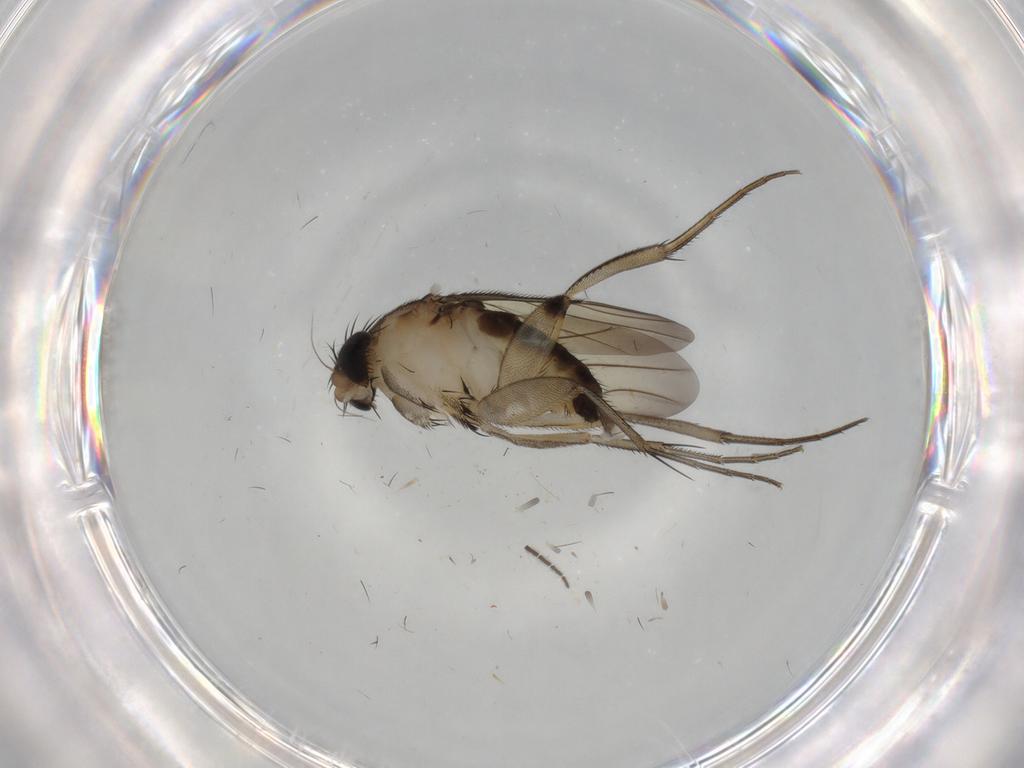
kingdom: Animalia
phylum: Arthropoda
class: Insecta
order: Diptera
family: Phoridae
